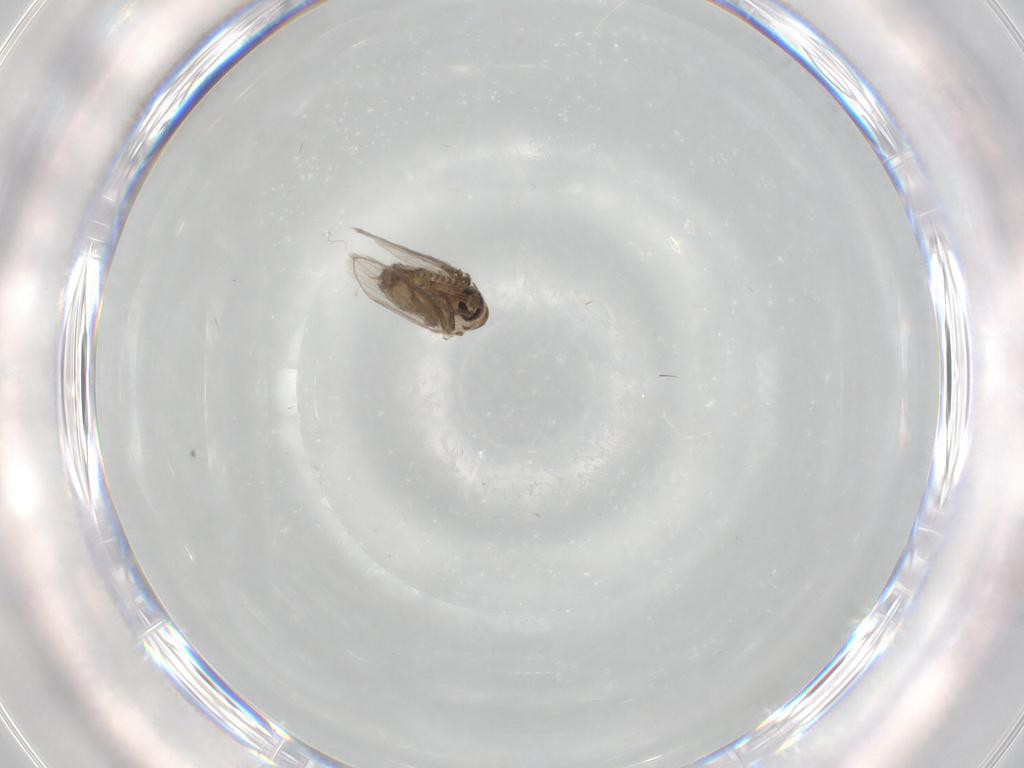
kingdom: Animalia
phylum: Arthropoda
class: Insecta
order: Diptera
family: Psychodidae
